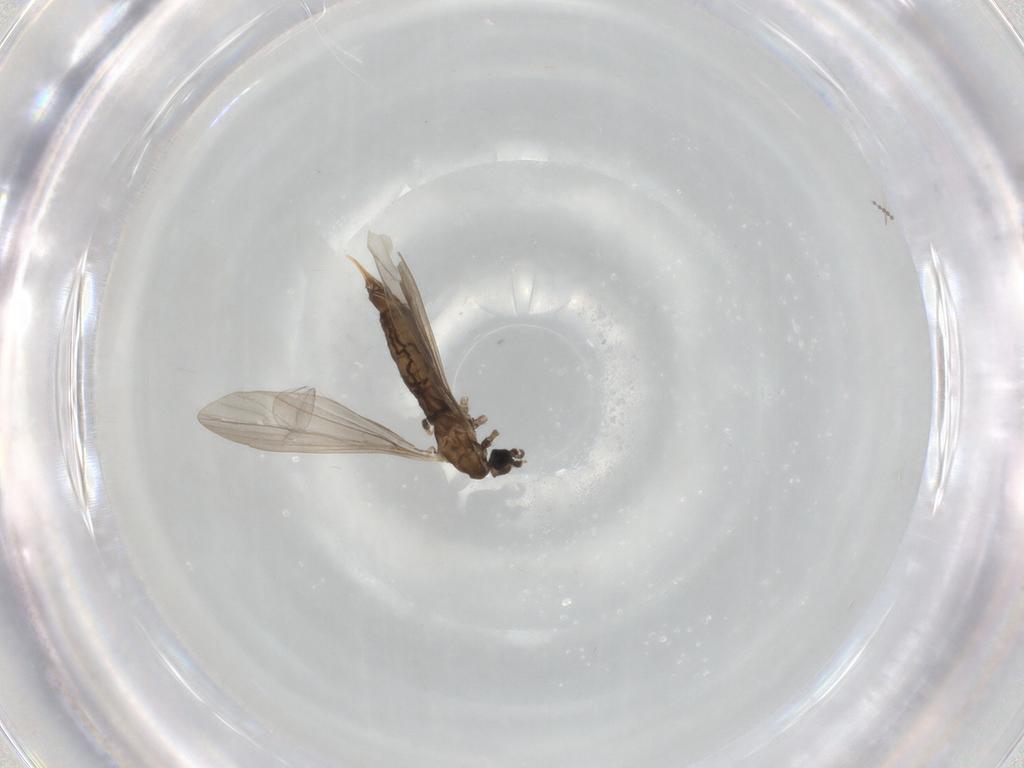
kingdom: Animalia
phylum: Arthropoda
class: Insecta
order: Diptera
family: Limoniidae
